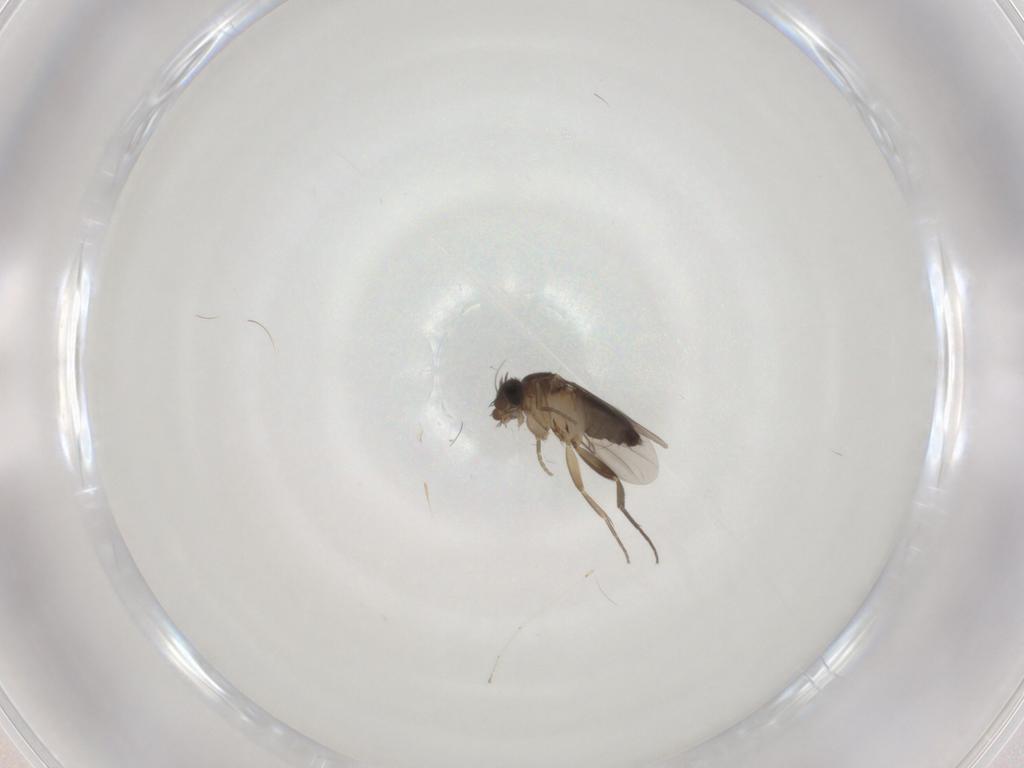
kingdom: Animalia
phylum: Arthropoda
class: Insecta
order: Diptera
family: Phoridae
